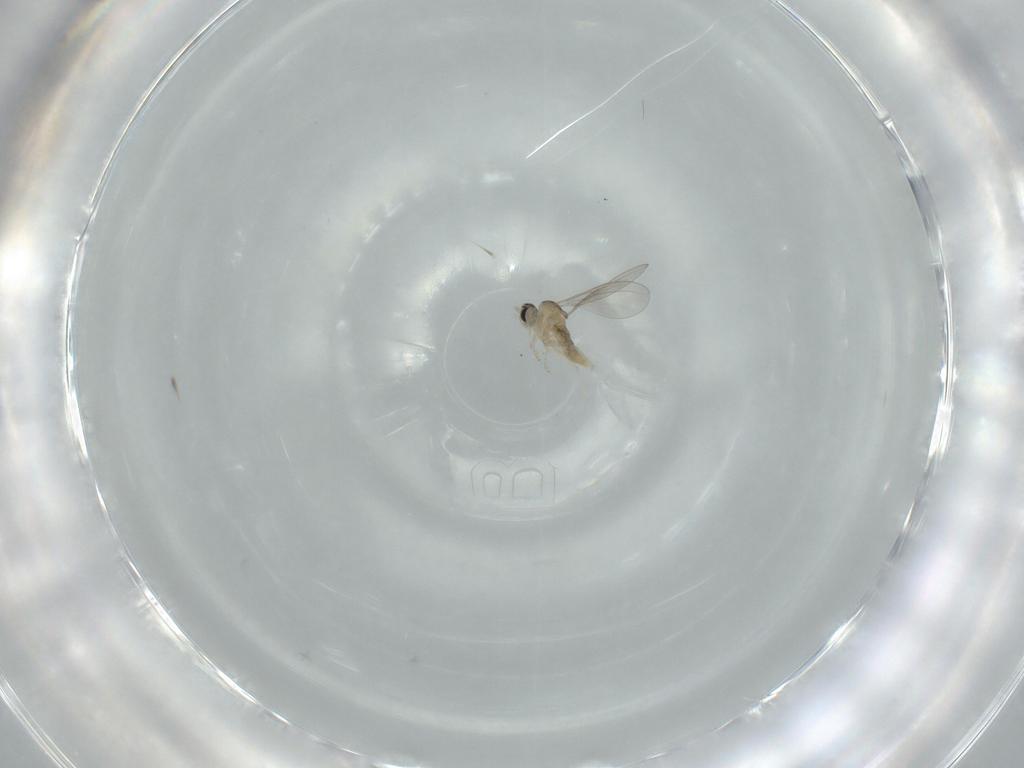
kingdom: Animalia
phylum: Arthropoda
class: Insecta
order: Diptera
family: Cecidomyiidae
